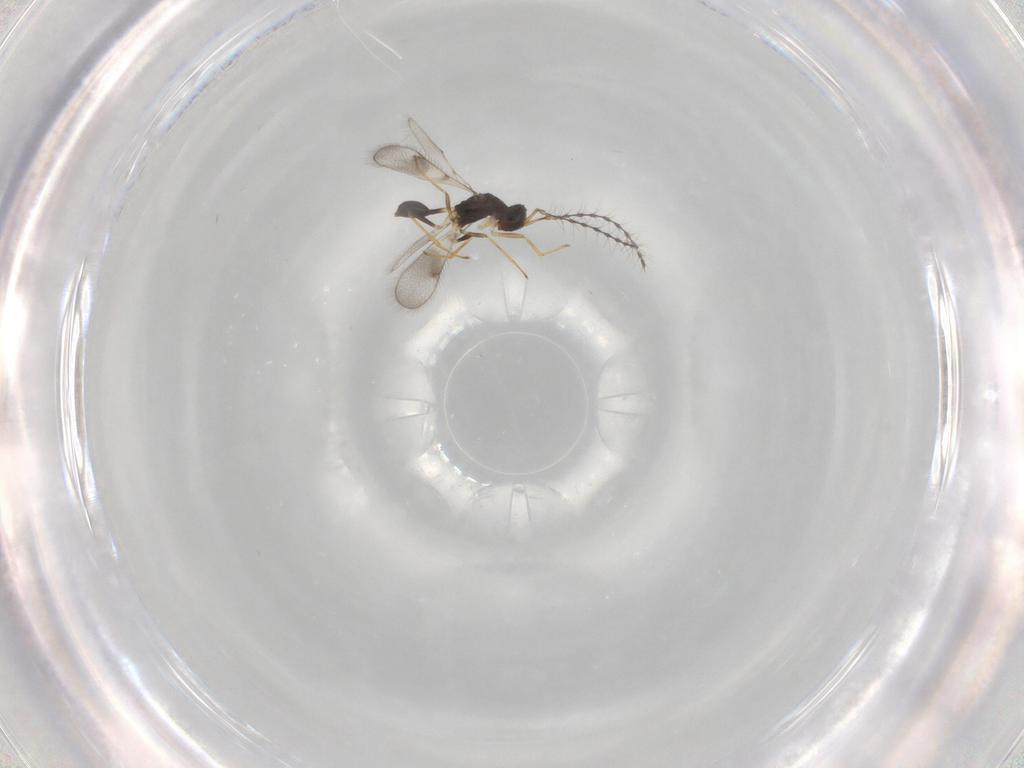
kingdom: Animalia
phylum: Arthropoda
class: Insecta
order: Hymenoptera
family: Diparidae
